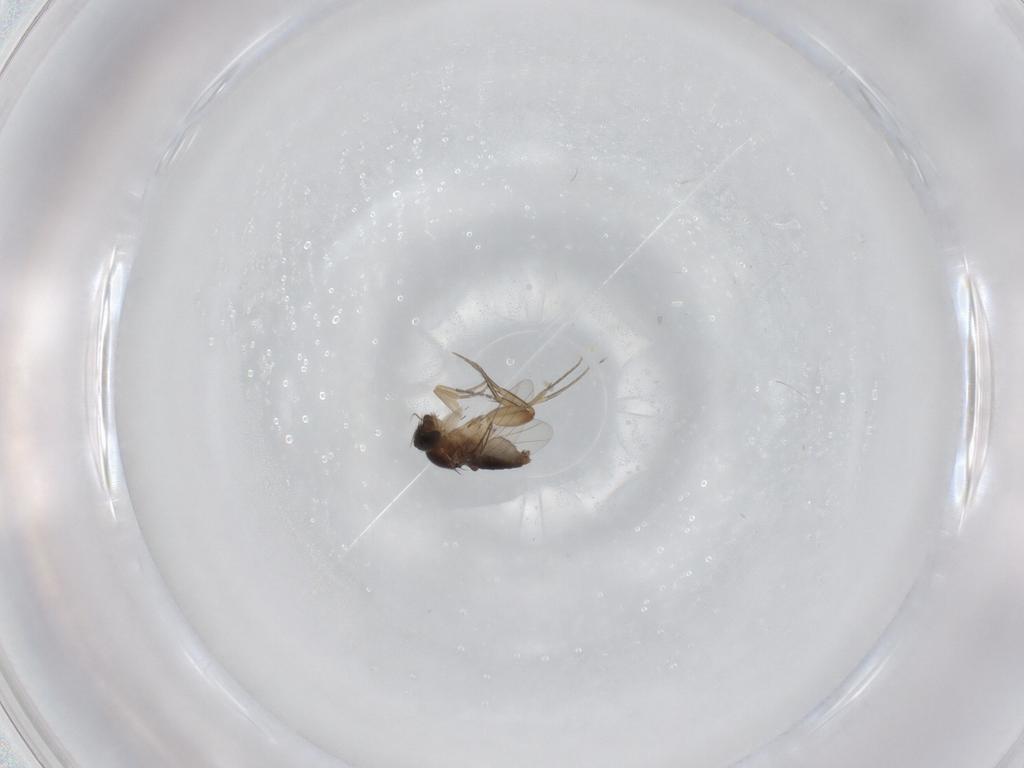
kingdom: Animalia
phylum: Arthropoda
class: Insecta
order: Diptera
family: Phoridae
